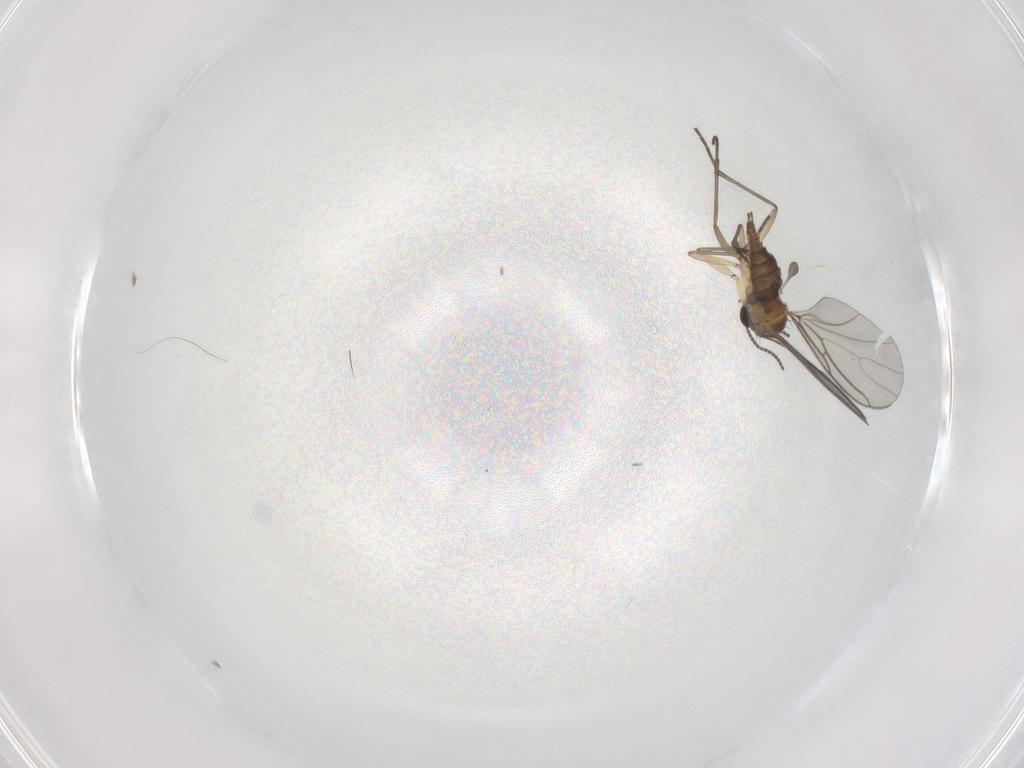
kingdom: Animalia
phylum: Arthropoda
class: Insecta
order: Diptera
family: Sciaridae
